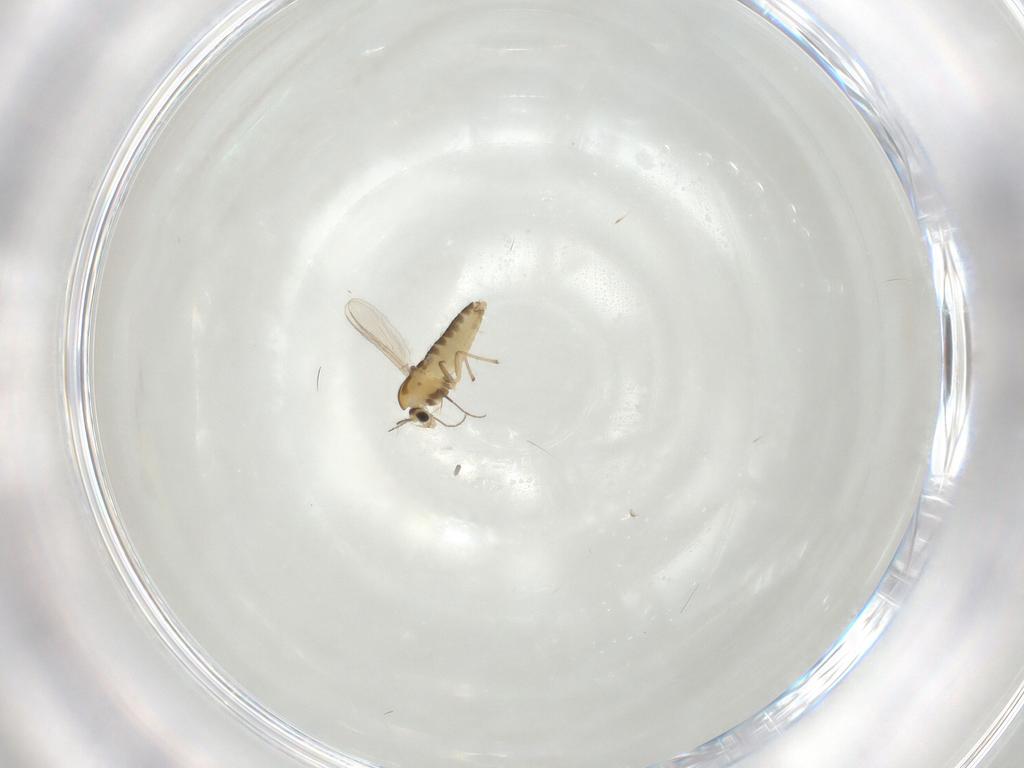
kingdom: Animalia
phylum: Arthropoda
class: Insecta
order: Diptera
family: Chironomidae
